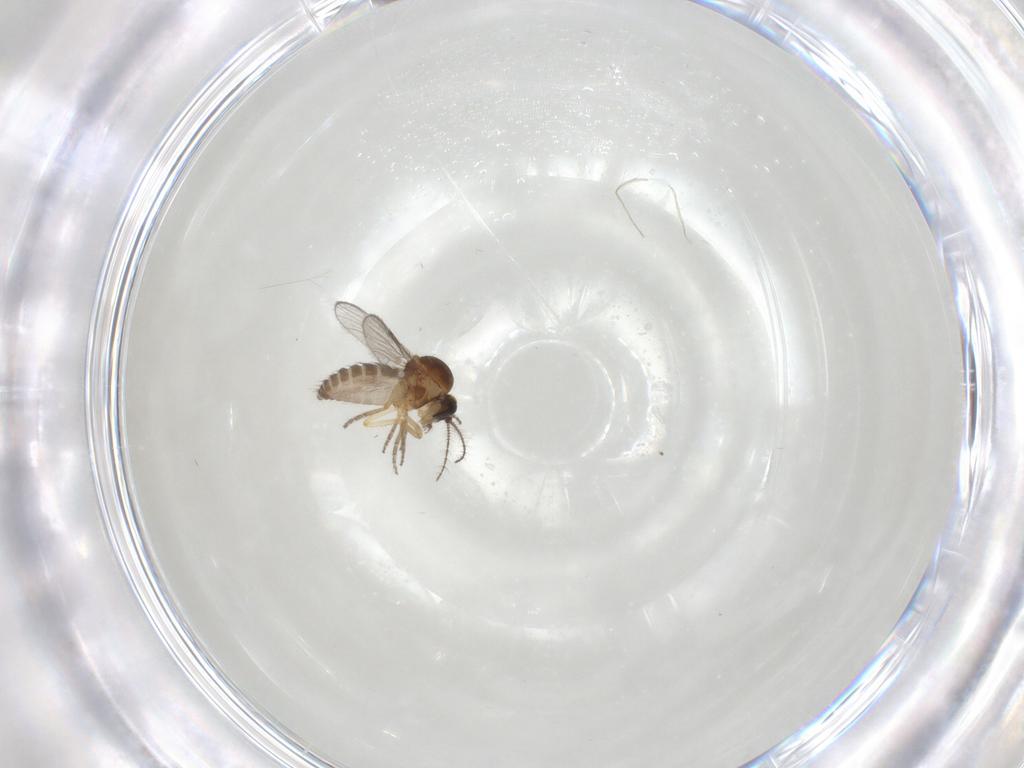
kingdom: Animalia
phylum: Arthropoda
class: Insecta
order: Diptera
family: Ceratopogonidae
